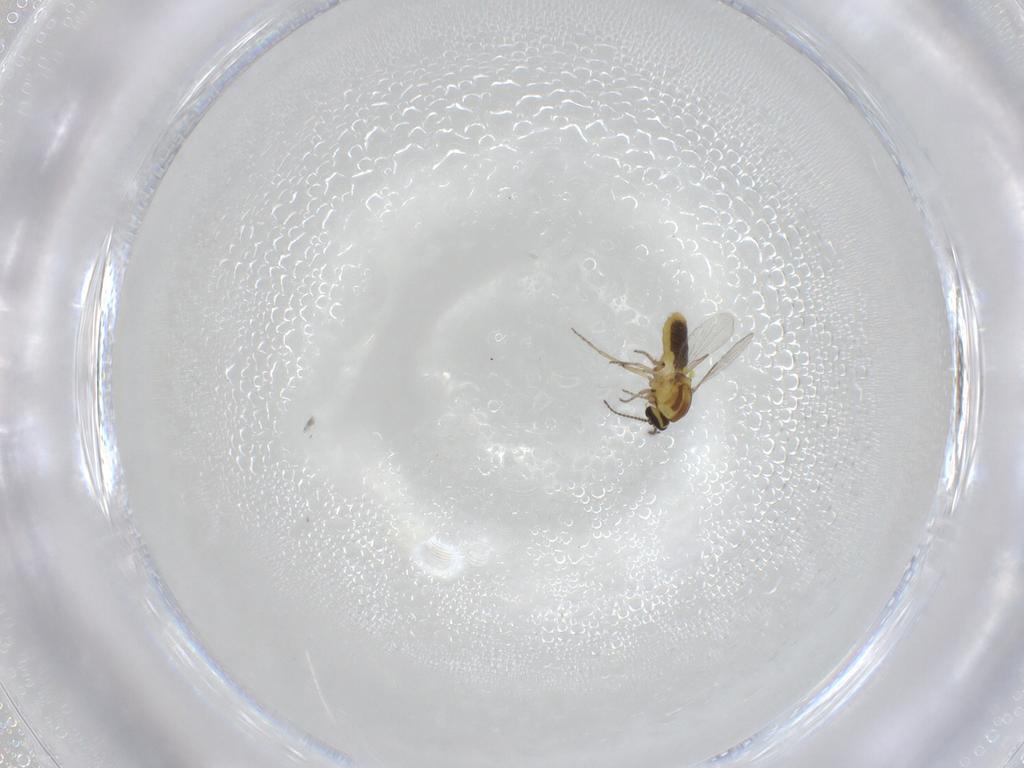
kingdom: Animalia
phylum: Arthropoda
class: Insecta
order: Diptera
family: Ceratopogonidae
